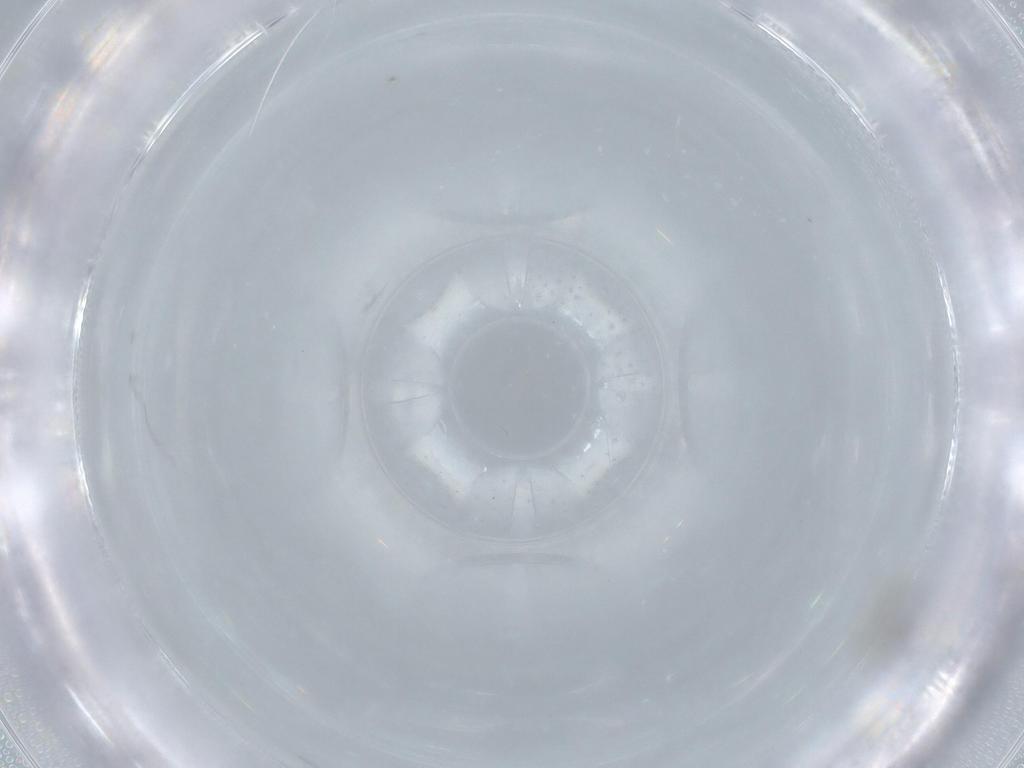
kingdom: Animalia
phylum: Arthropoda
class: Insecta
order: Hymenoptera
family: Mymaridae
